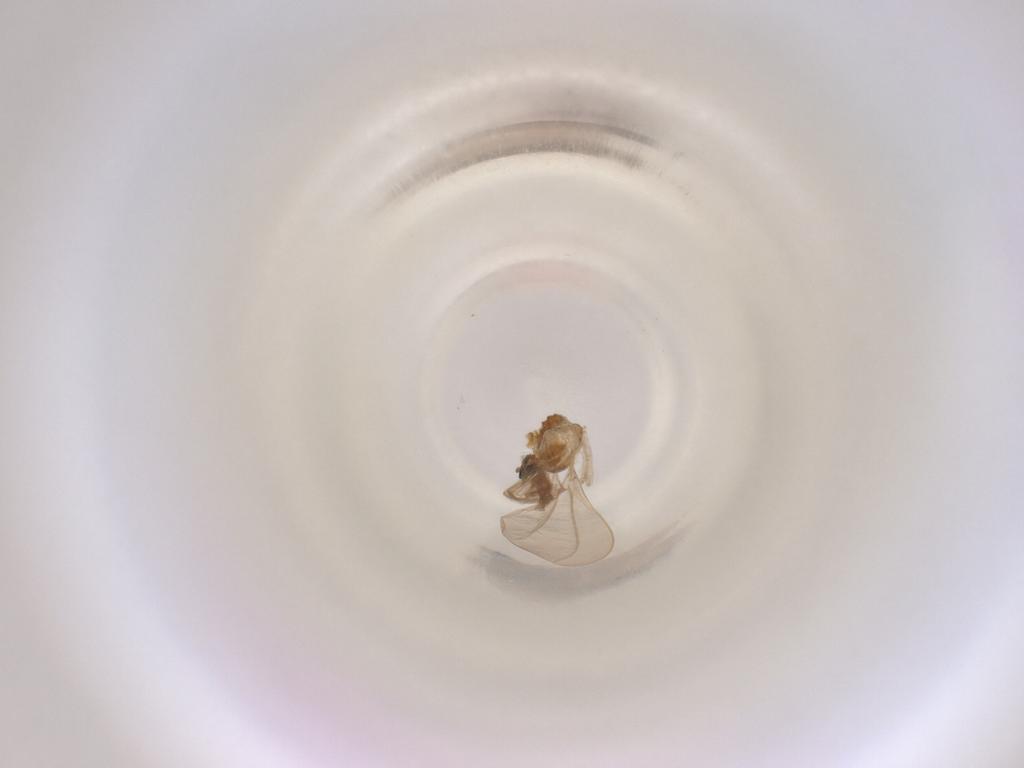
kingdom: Animalia
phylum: Arthropoda
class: Insecta
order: Diptera
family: Cecidomyiidae
